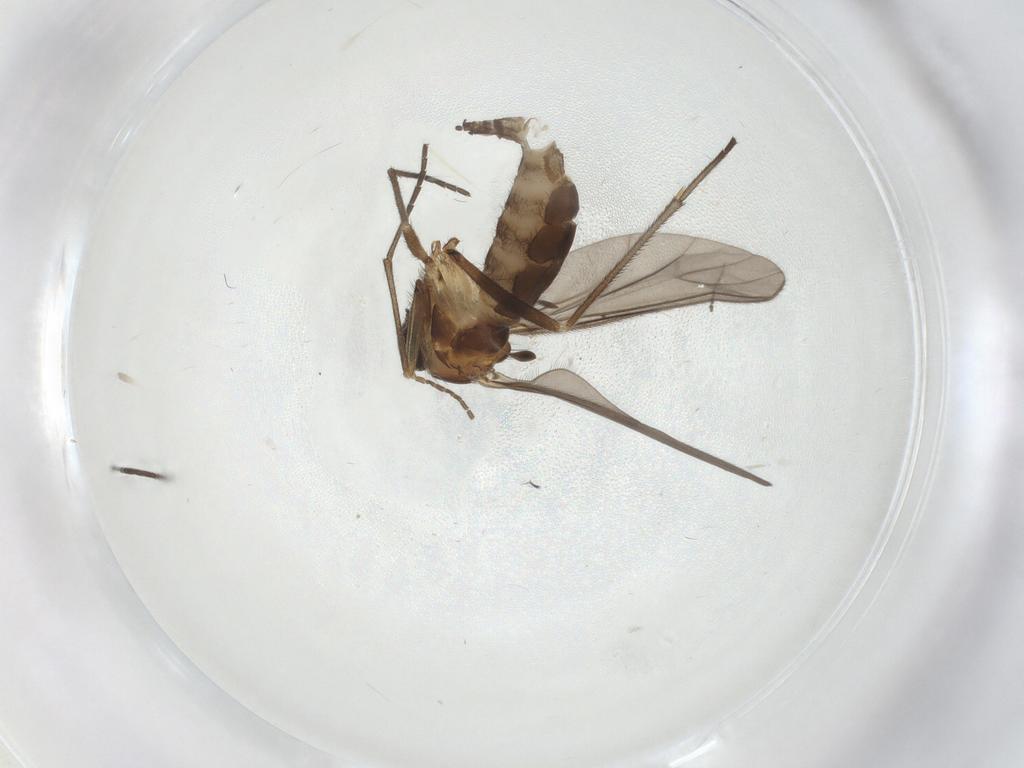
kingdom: Animalia
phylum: Arthropoda
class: Insecta
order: Diptera
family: Sciaridae
